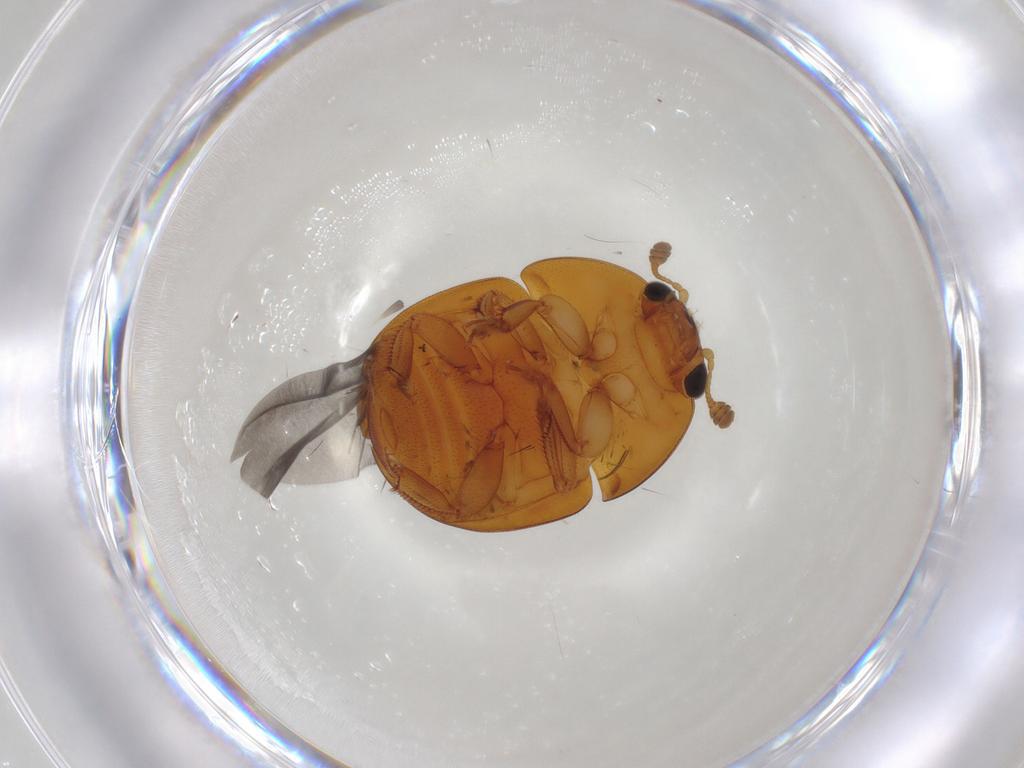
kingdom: Animalia
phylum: Arthropoda
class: Insecta
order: Coleoptera
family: Nitidulidae
